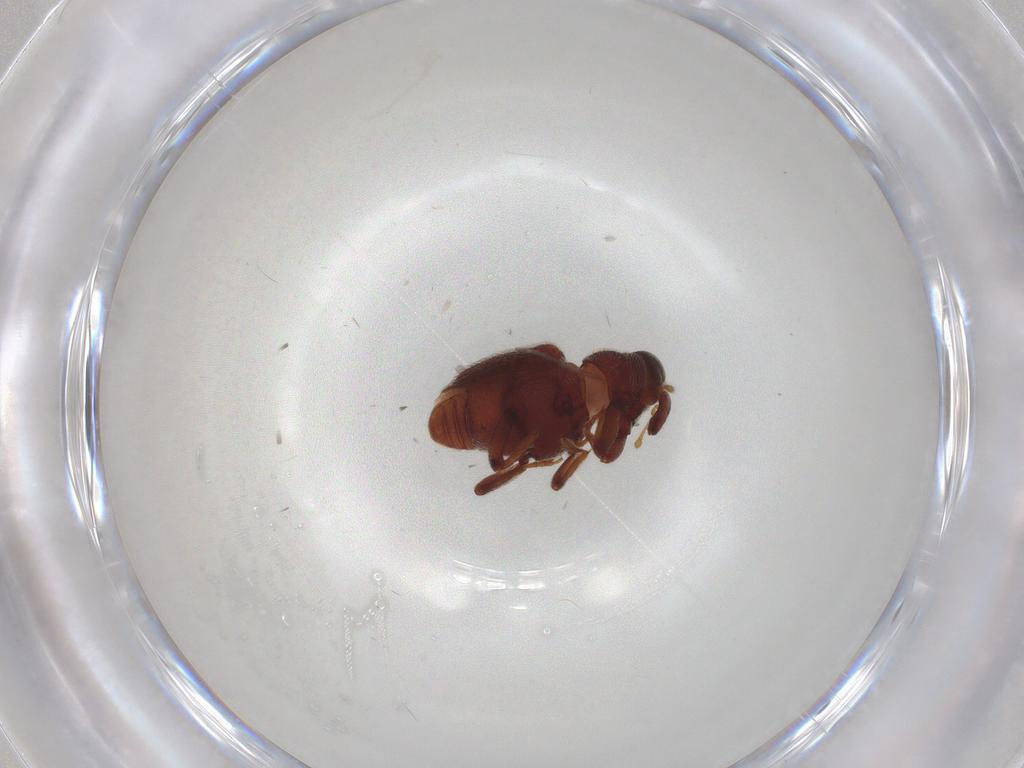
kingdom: Animalia
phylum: Arthropoda
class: Insecta
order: Coleoptera
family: Curculionidae
